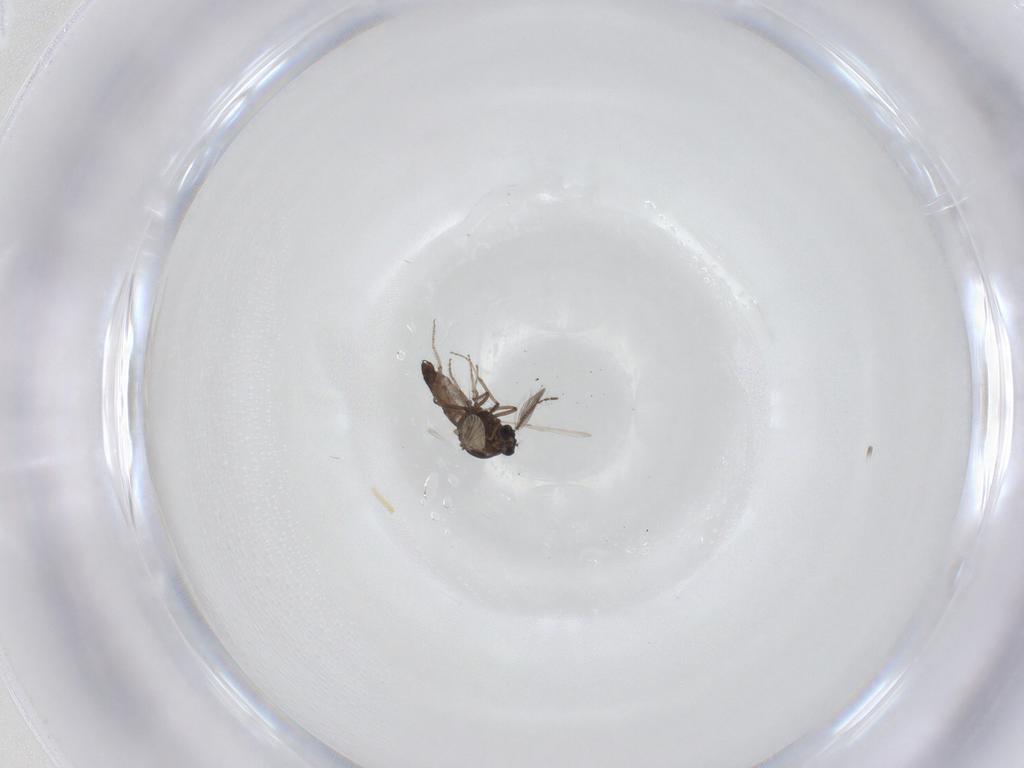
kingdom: Animalia
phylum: Arthropoda
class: Insecta
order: Diptera
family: Ceratopogonidae
